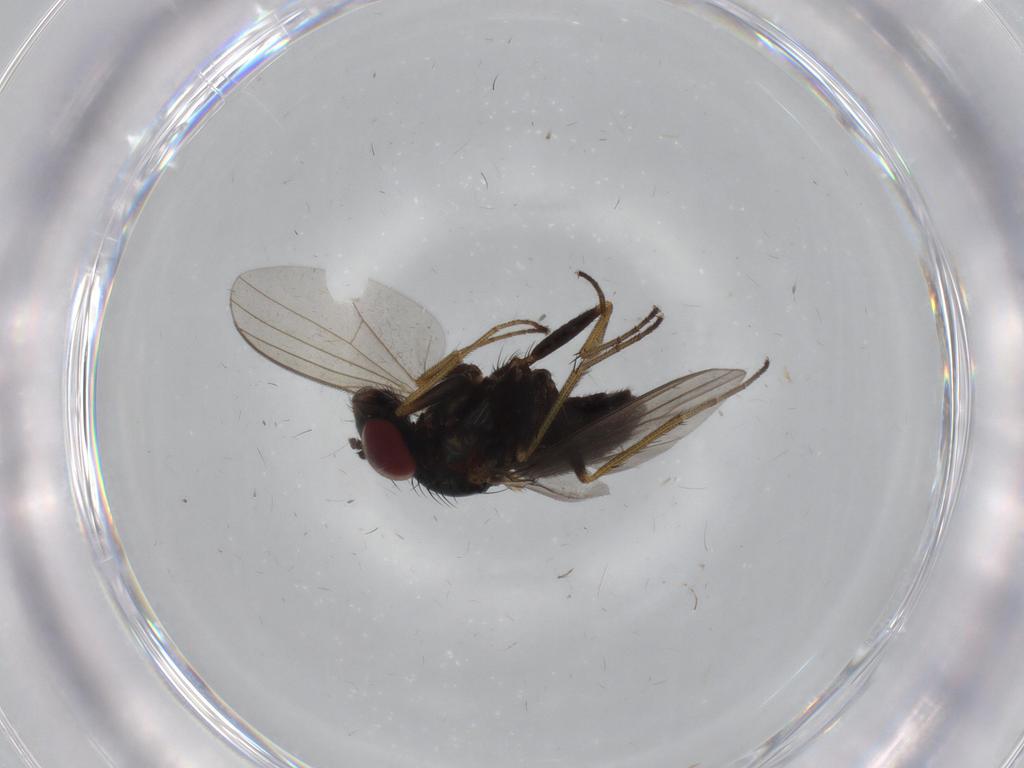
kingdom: Animalia
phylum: Arthropoda
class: Insecta
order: Diptera
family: Dolichopodidae
